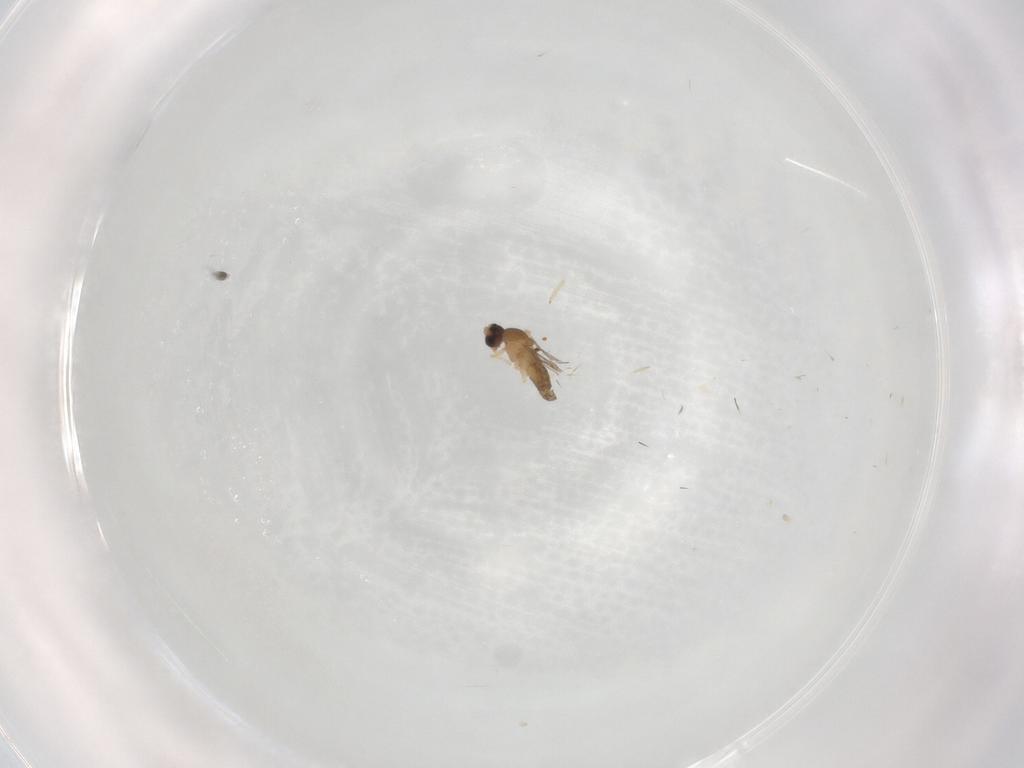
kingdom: Animalia
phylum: Arthropoda
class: Insecta
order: Diptera
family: Cecidomyiidae
